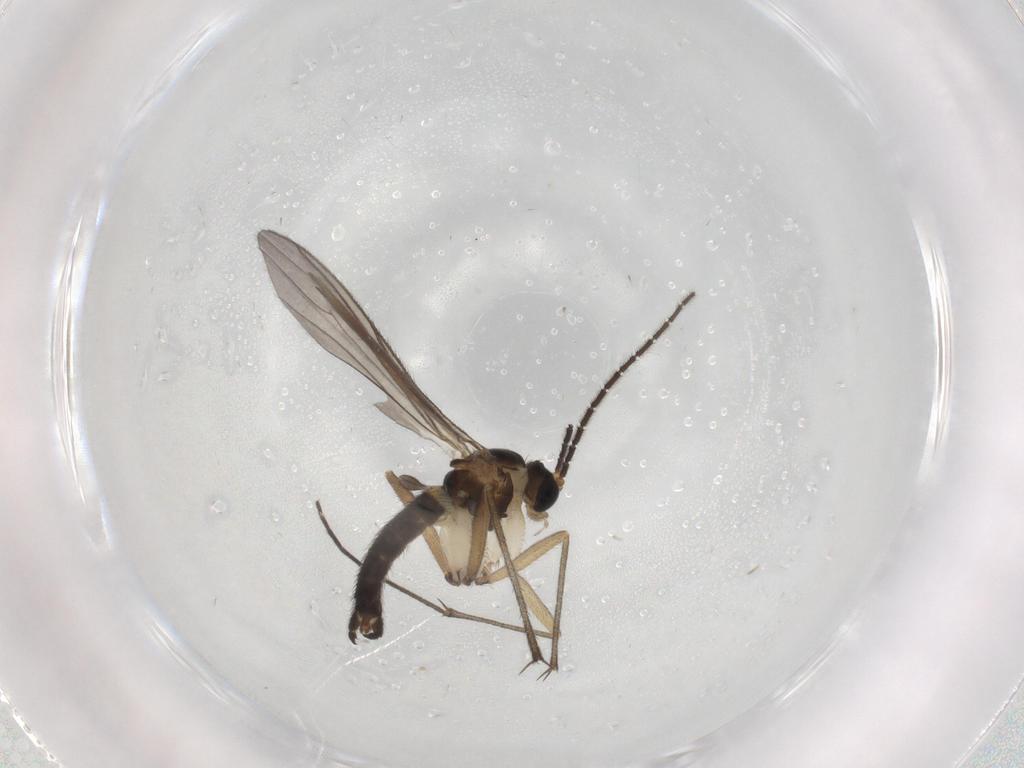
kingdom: Animalia
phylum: Arthropoda
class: Insecta
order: Diptera
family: Sciaridae
